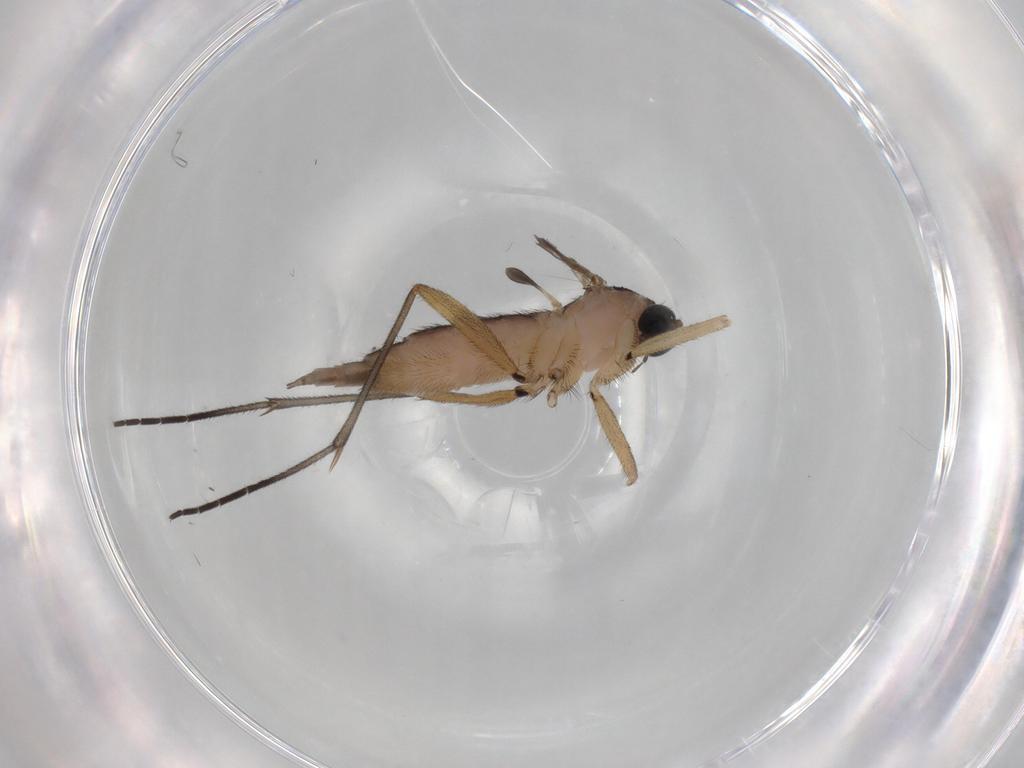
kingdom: Animalia
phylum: Arthropoda
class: Insecta
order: Diptera
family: Sciaridae
